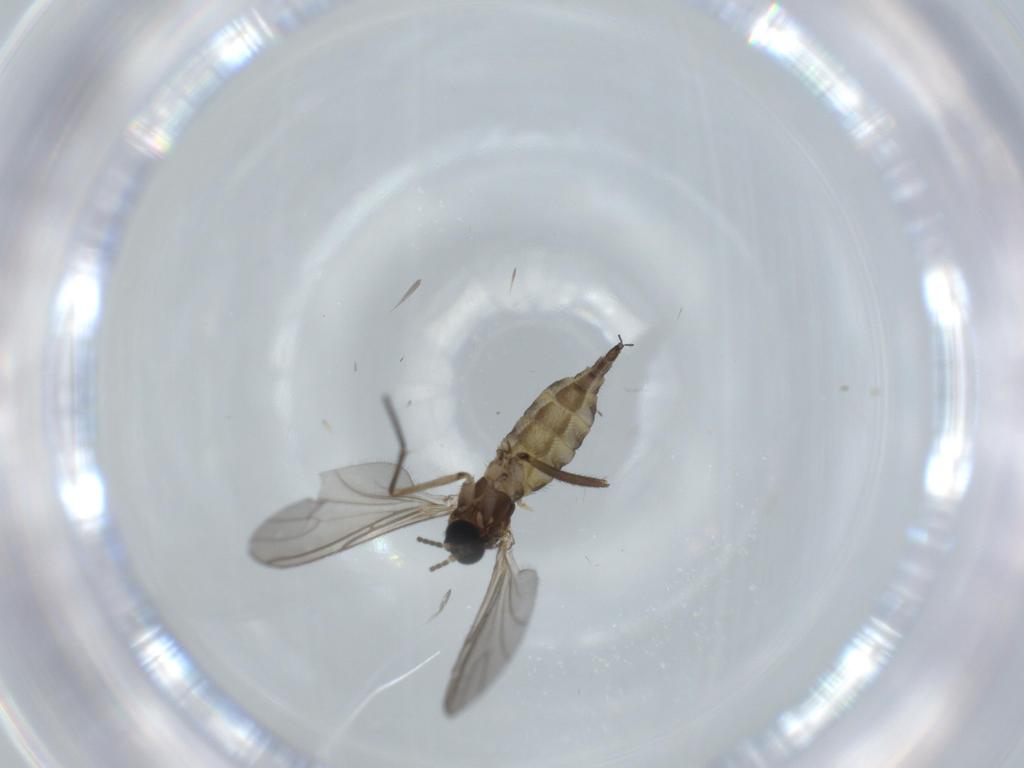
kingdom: Animalia
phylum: Arthropoda
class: Insecta
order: Diptera
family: Sciaridae
